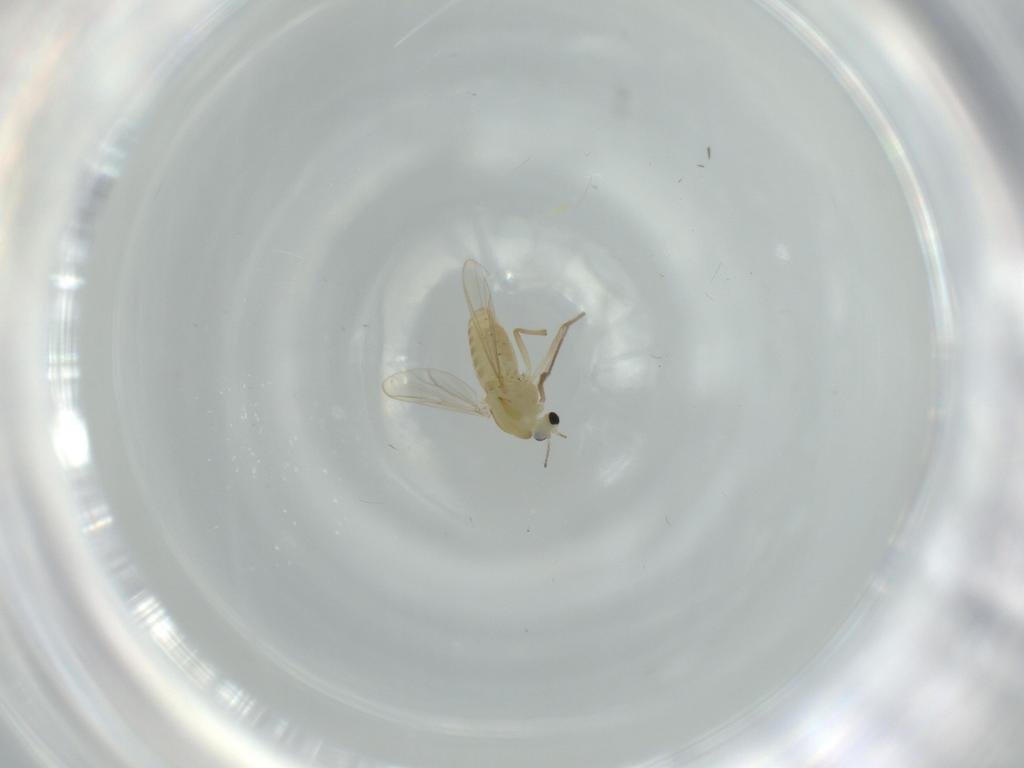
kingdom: Animalia
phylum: Arthropoda
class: Insecta
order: Diptera
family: Chironomidae
